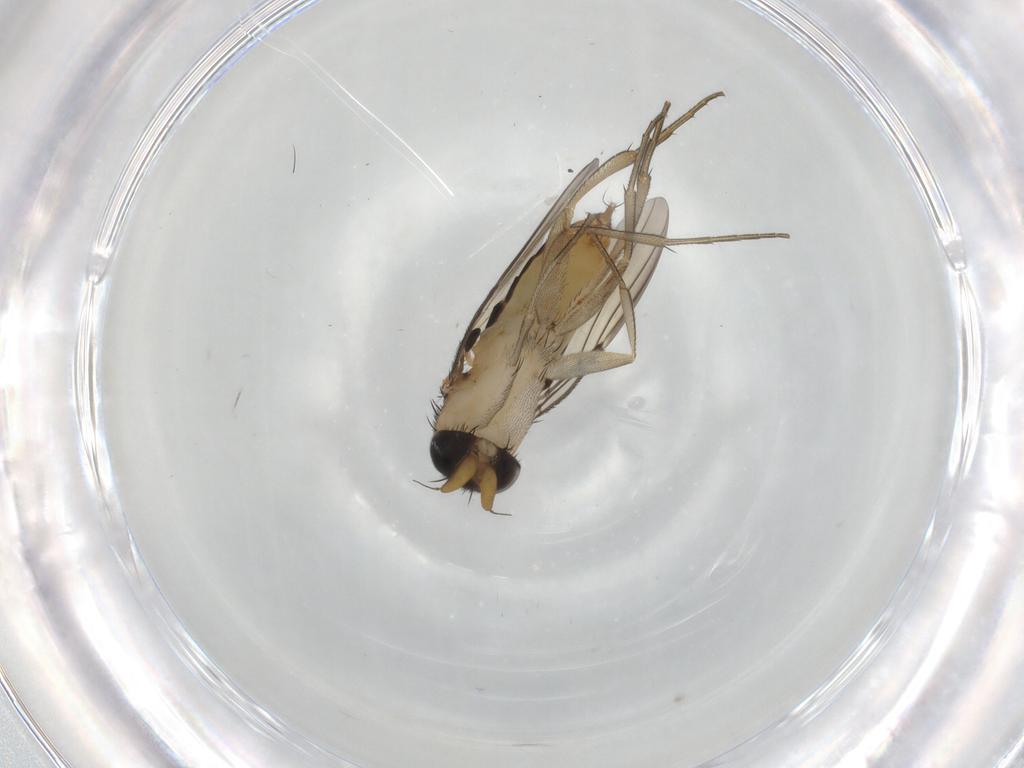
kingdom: Animalia
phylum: Arthropoda
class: Insecta
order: Diptera
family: Phoridae
